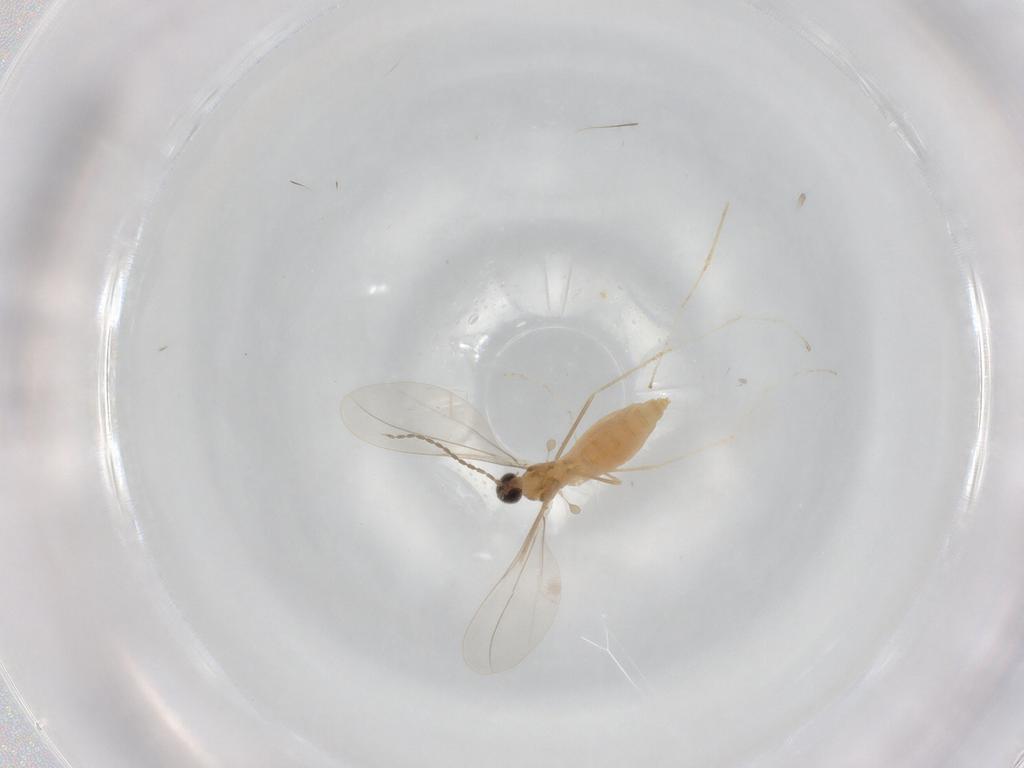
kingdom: Animalia
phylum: Arthropoda
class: Insecta
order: Diptera
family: Cecidomyiidae
